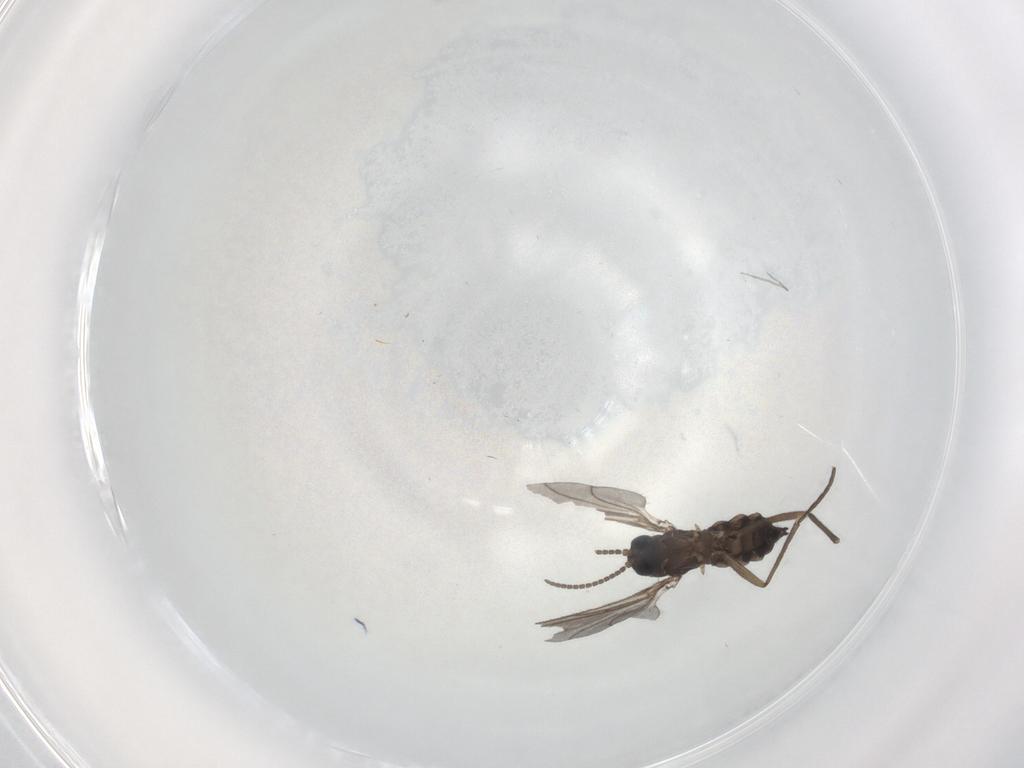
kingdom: Animalia
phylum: Arthropoda
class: Insecta
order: Diptera
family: Sciaridae
